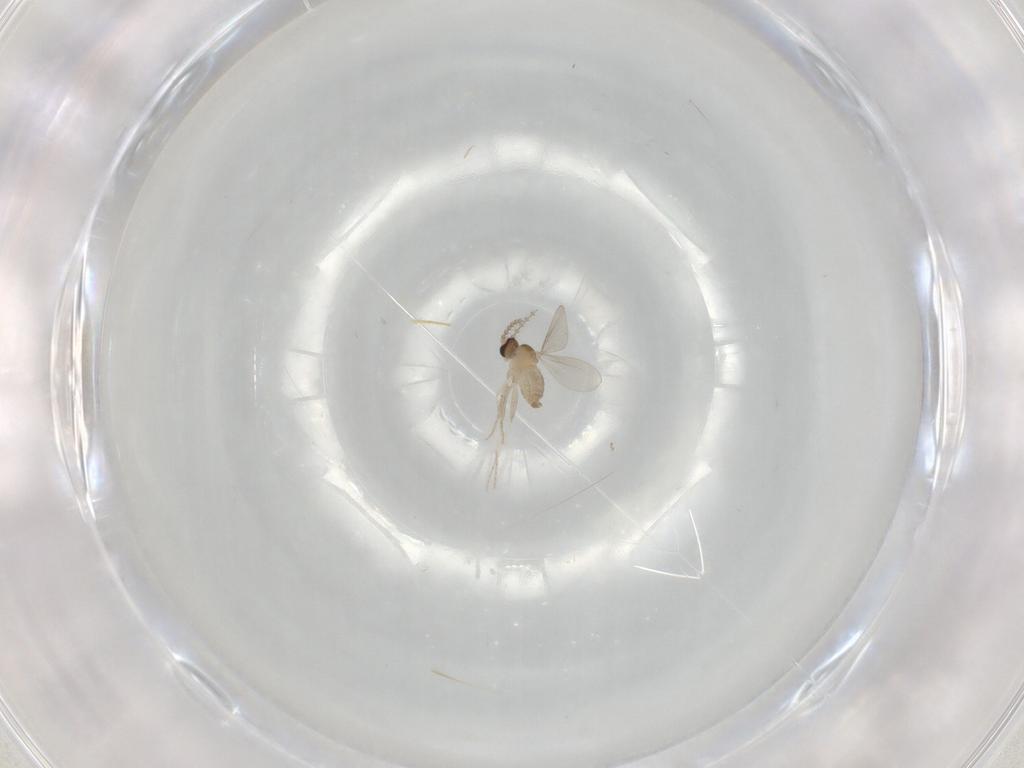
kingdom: Animalia
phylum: Arthropoda
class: Insecta
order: Diptera
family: Cecidomyiidae
